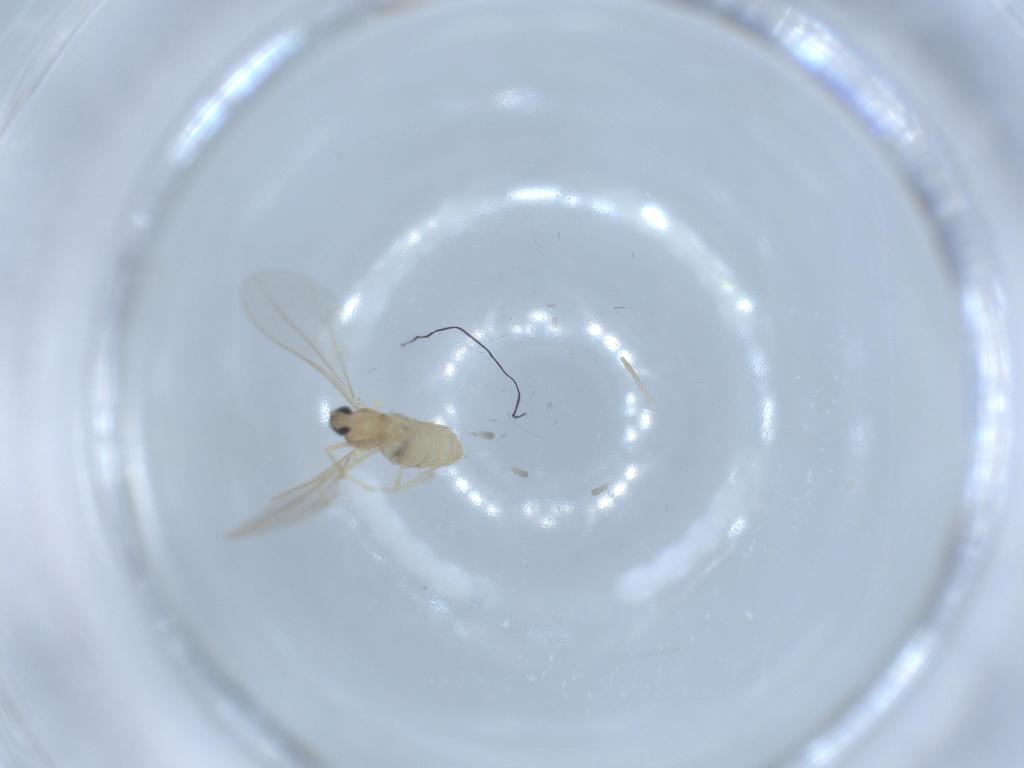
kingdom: Animalia
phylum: Arthropoda
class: Insecta
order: Diptera
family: Cecidomyiidae
